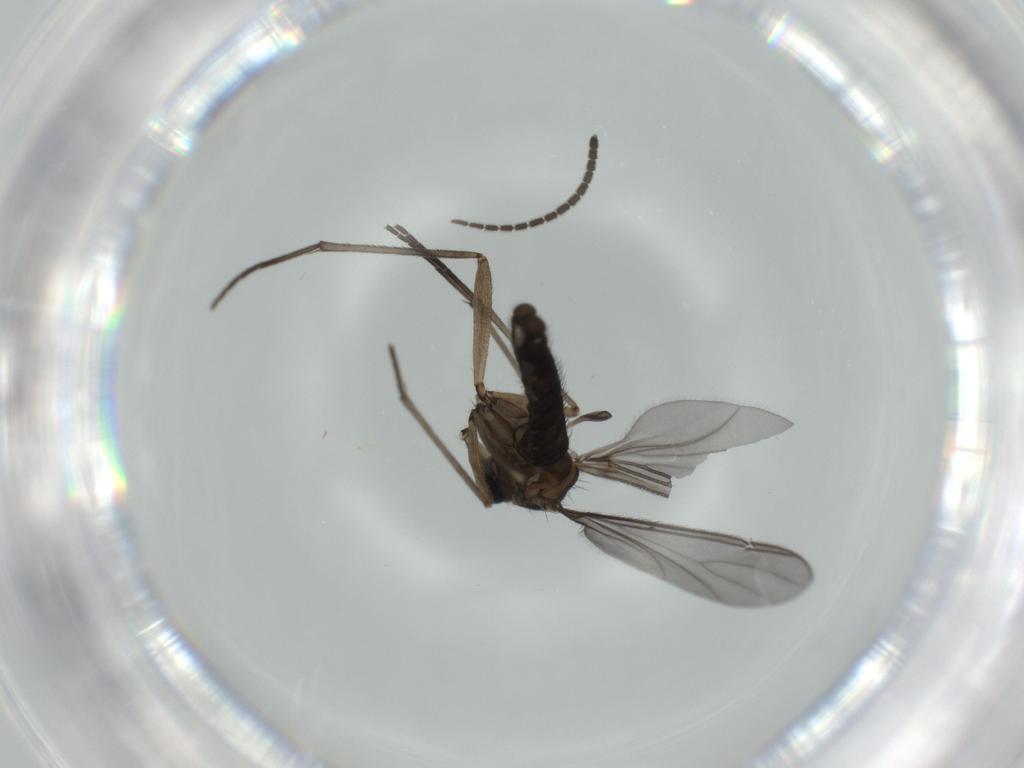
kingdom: Animalia
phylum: Arthropoda
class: Insecta
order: Diptera
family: Sciaridae
